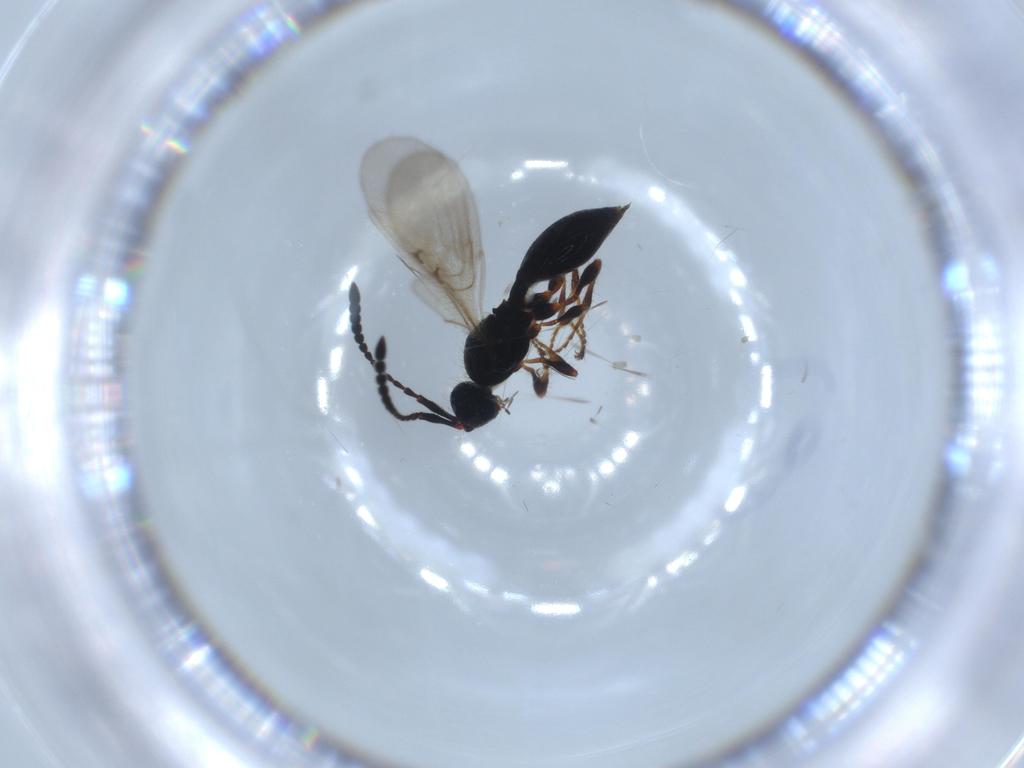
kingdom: Animalia
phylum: Arthropoda
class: Insecta
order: Hymenoptera
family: Diapriidae
